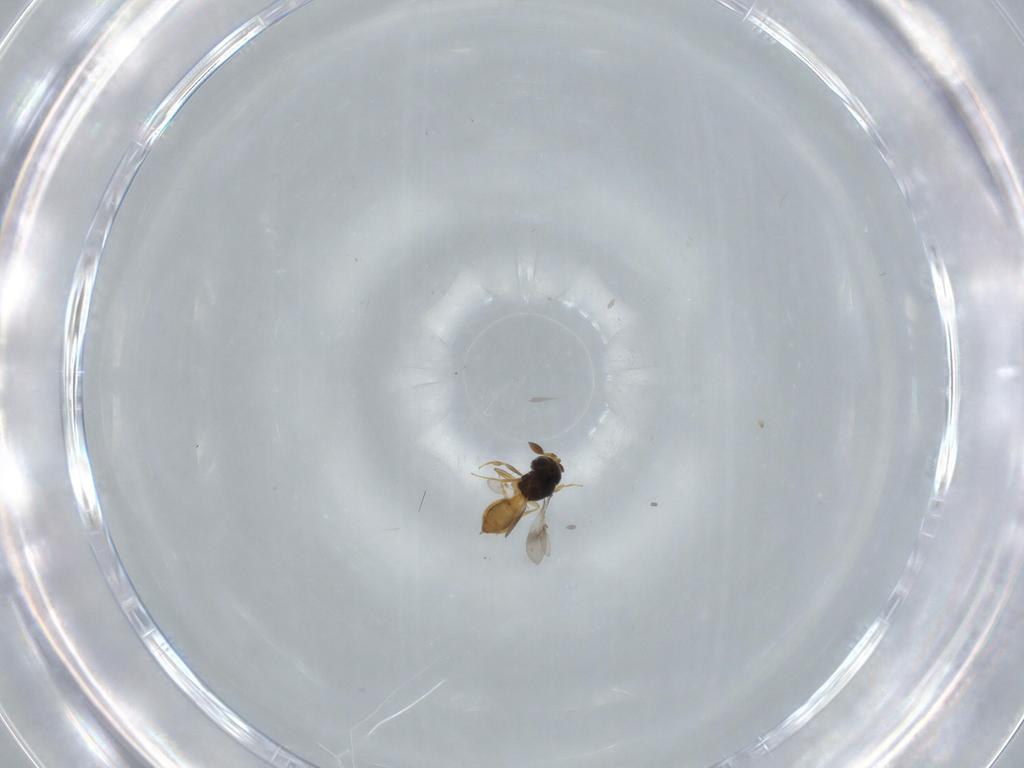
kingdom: Animalia
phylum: Arthropoda
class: Insecta
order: Hymenoptera
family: Scelionidae
